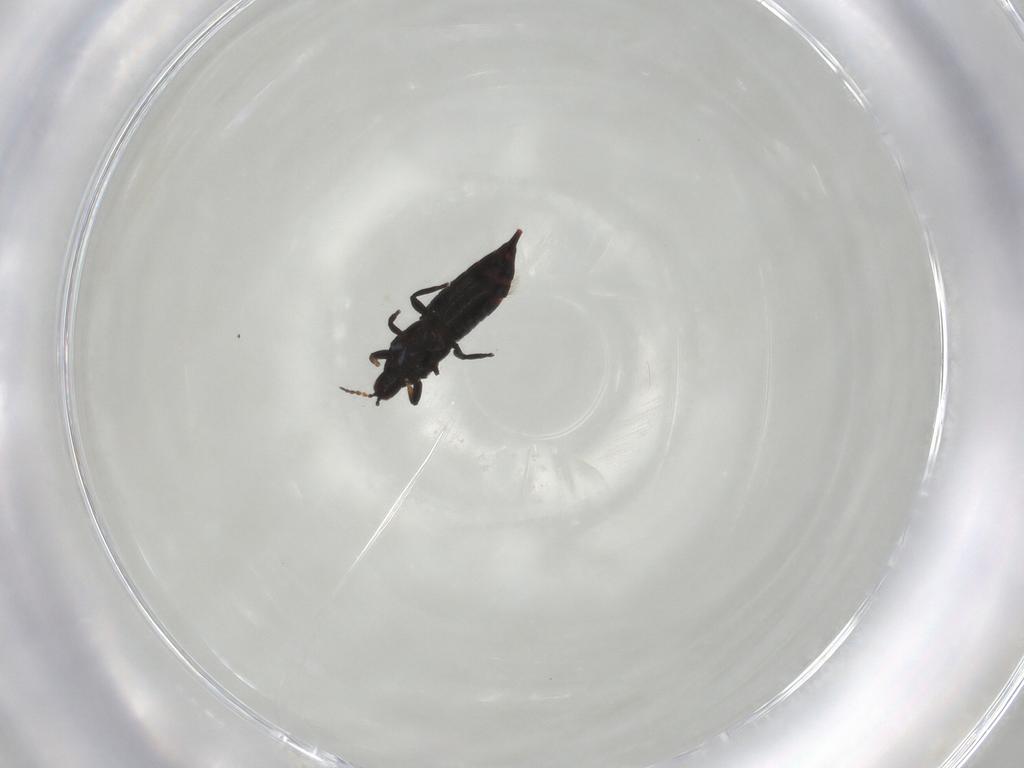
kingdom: Animalia
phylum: Arthropoda
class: Insecta
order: Thysanoptera
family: Phlaeothripidae
